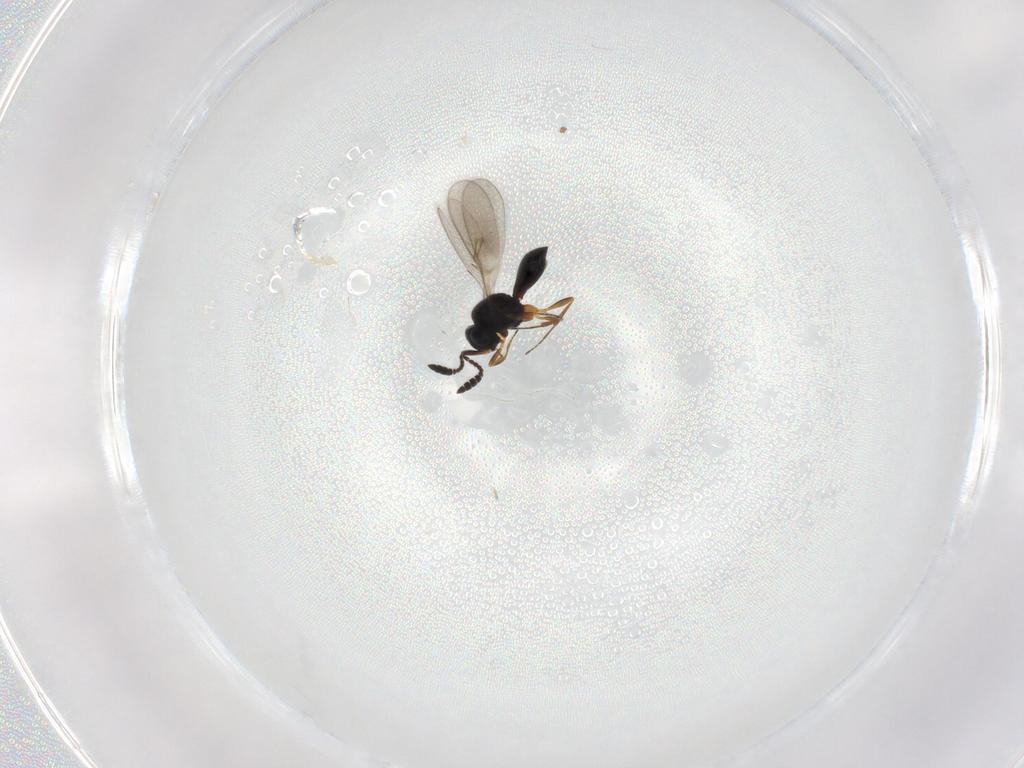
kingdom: Animalia
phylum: Arthropoda
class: Insecta
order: Hymenoptera
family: Scelionidae
